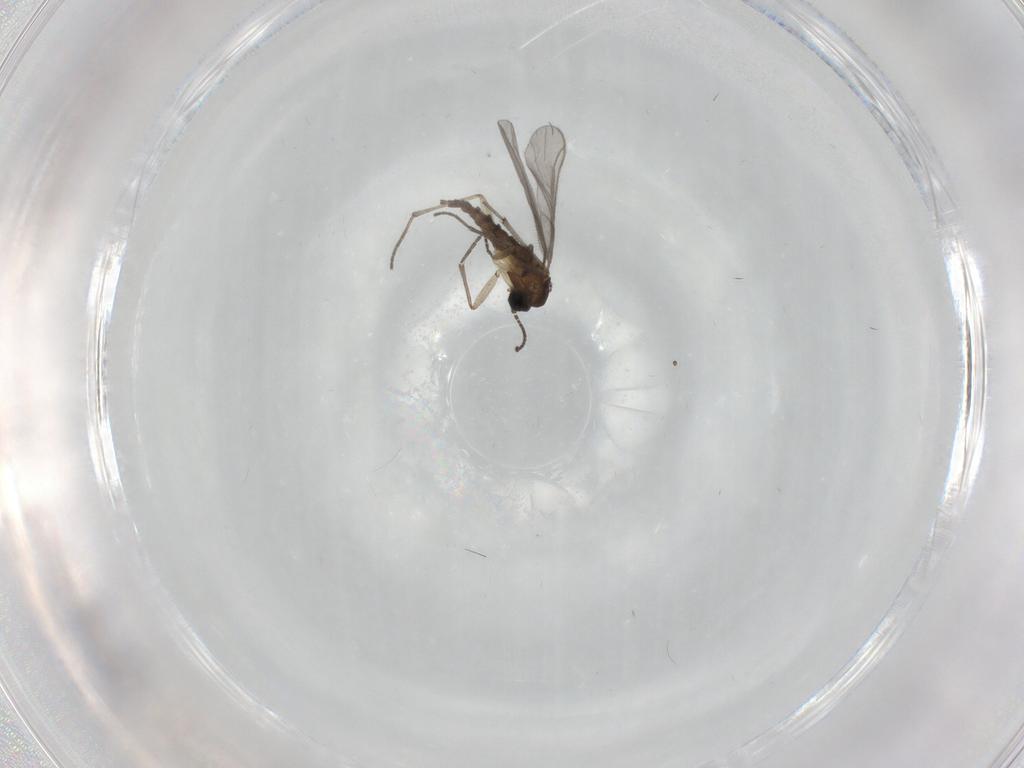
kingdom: Animalia
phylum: Arthropoda
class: Insecta
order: Diptera
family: Sciaridae
